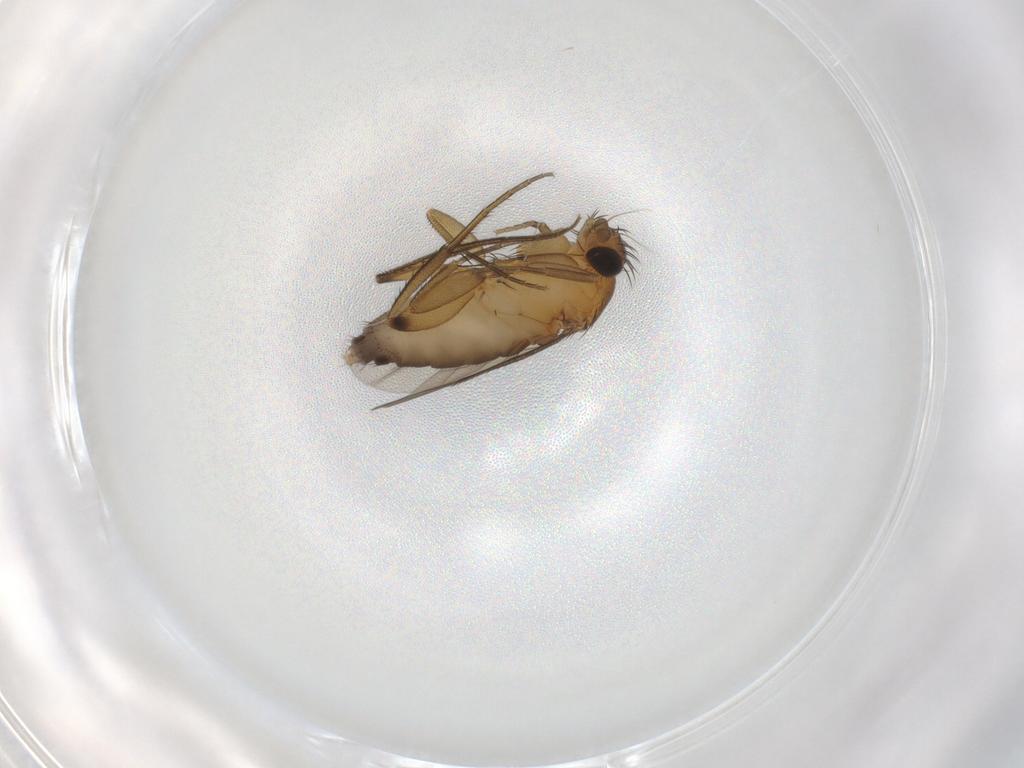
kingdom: Animalia
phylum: Arthropoda
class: Insecta
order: Diptera
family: Phoridae
